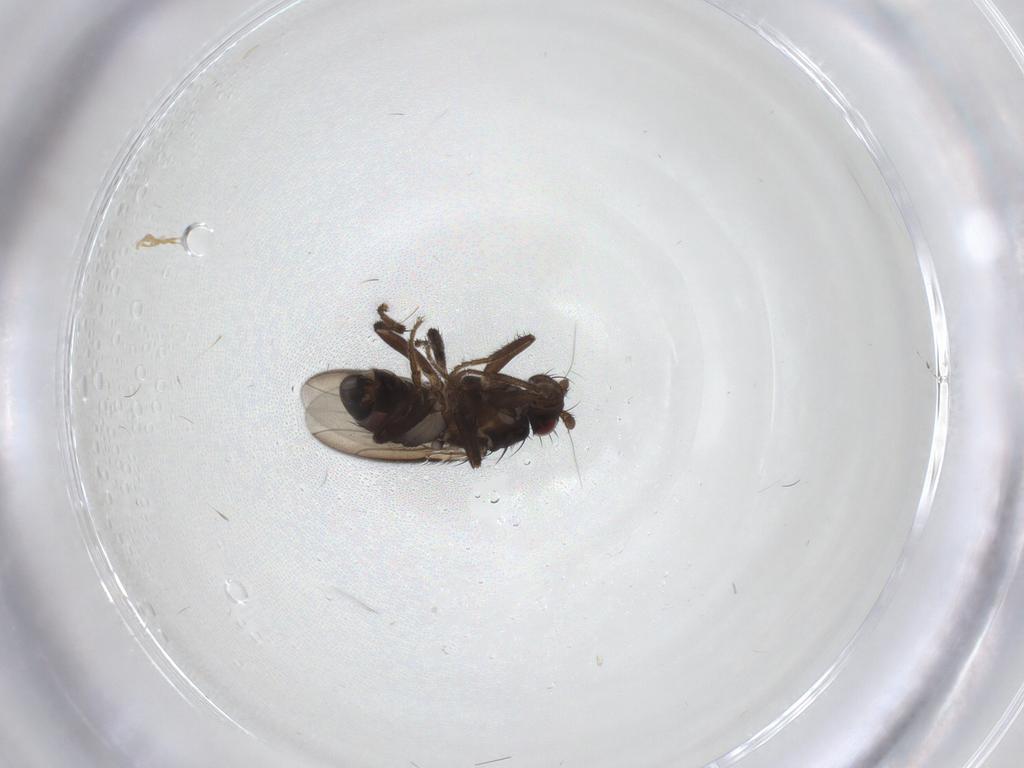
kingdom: Animalia
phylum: Arthropoda
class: Insecta
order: Diptera
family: Sphaeroceridae
